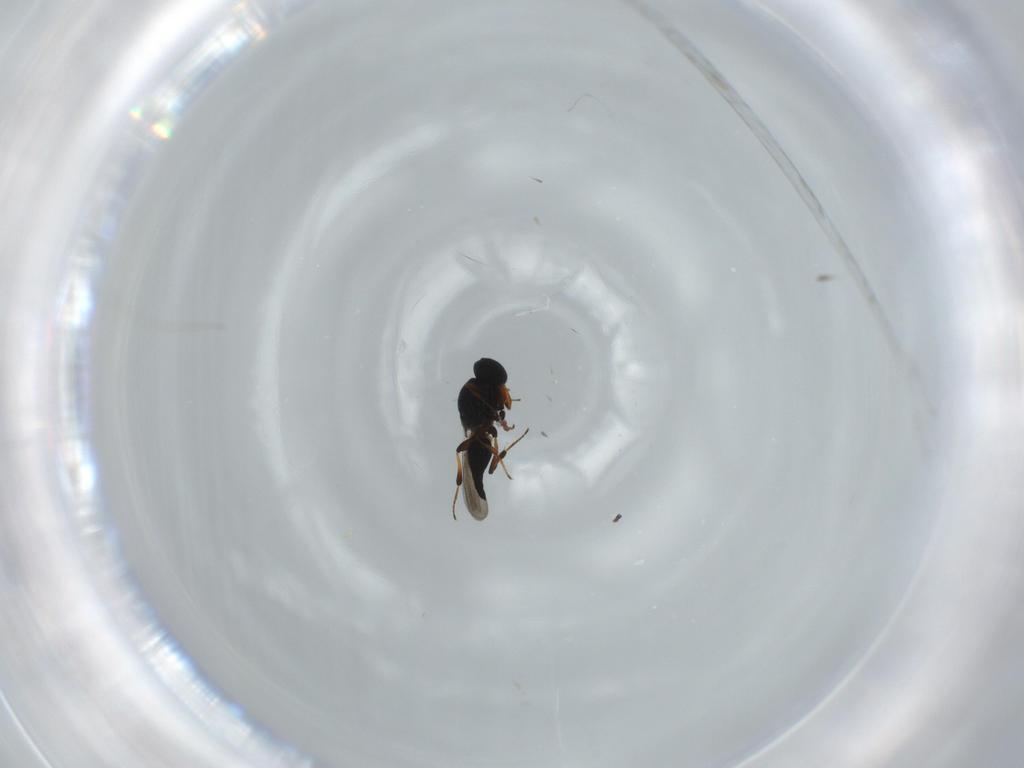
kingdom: Animalia
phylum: Arthropoda
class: Insecta
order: Hymenoptera
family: Platygastridae
